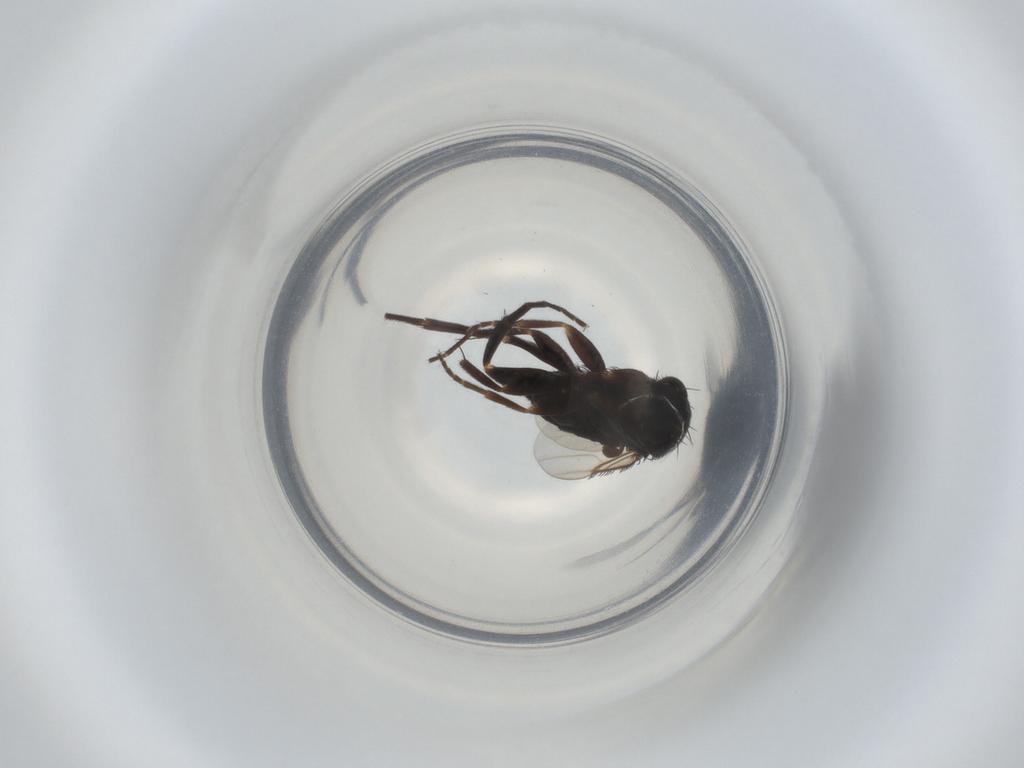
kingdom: Animalia
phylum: Arthropoda
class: Insecta
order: Diptera
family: Phoridae
